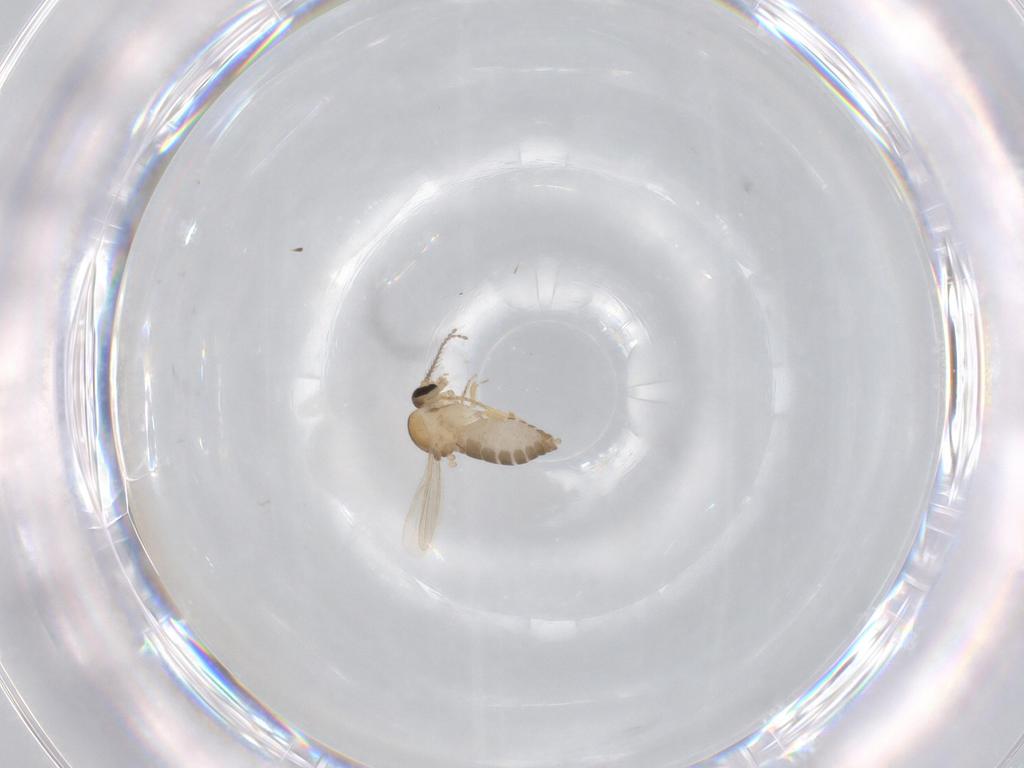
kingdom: Animalia
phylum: Arthropoda
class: Insecta
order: Diptera
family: Ceratopogonidae
